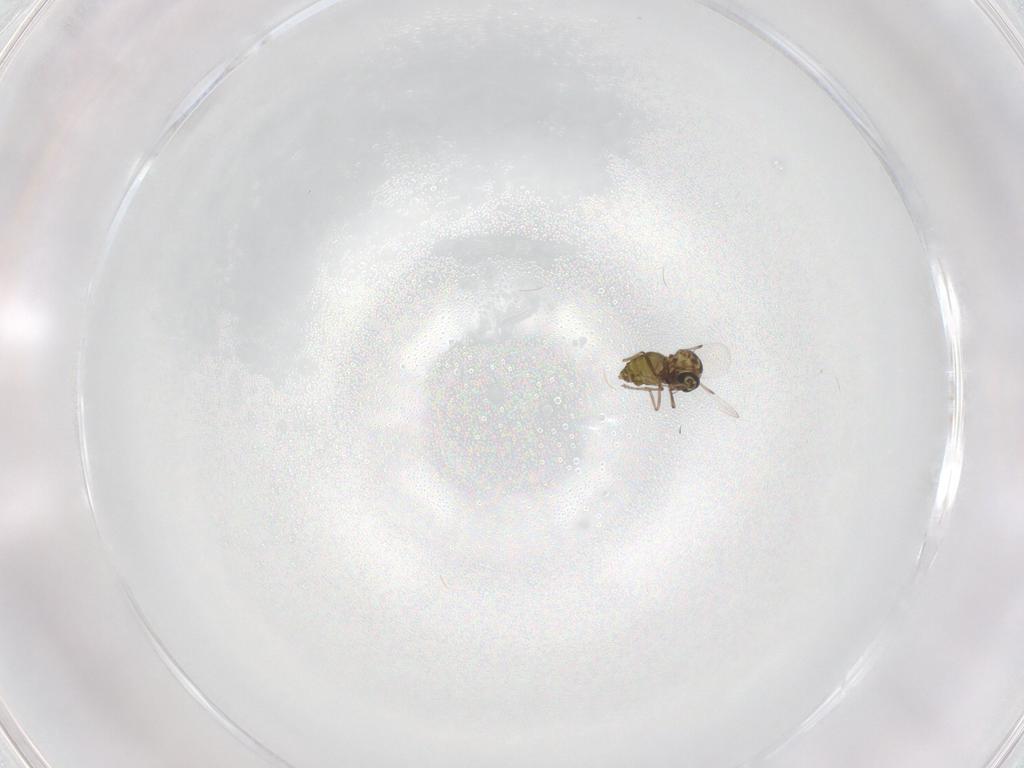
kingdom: Animalia
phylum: Arthropoda
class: Insecta
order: Diptera
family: Ceratopogonidae
